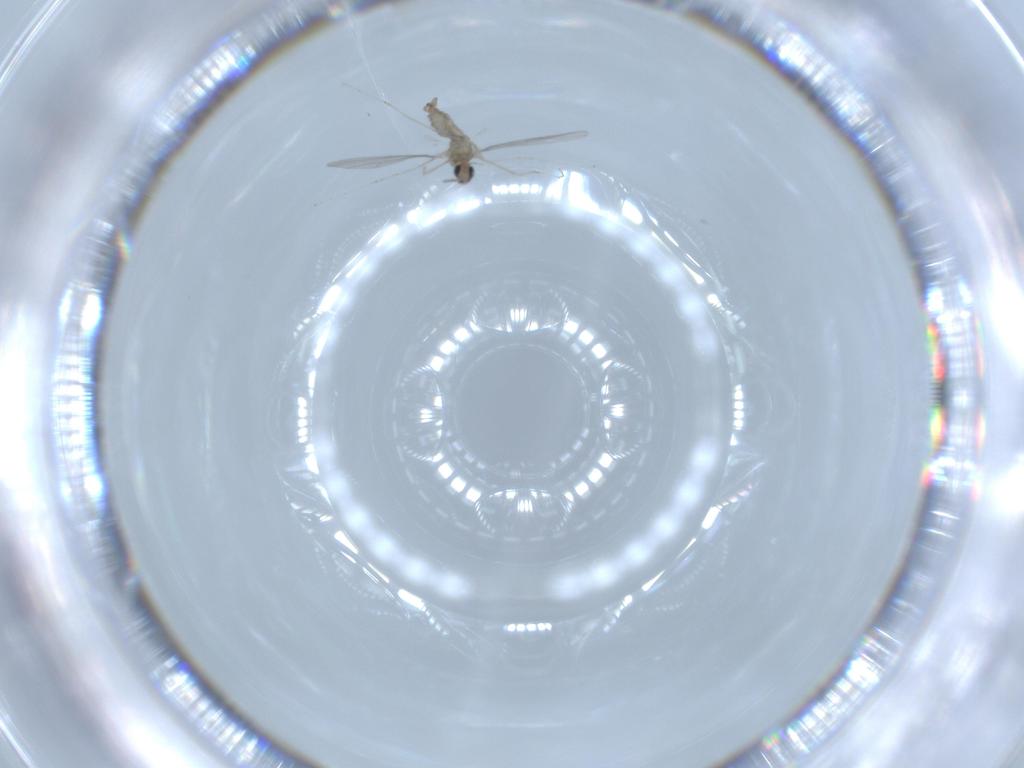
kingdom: Animalia
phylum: Arthropoda
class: Insecta
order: Diptera
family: Cecidomyiidae
